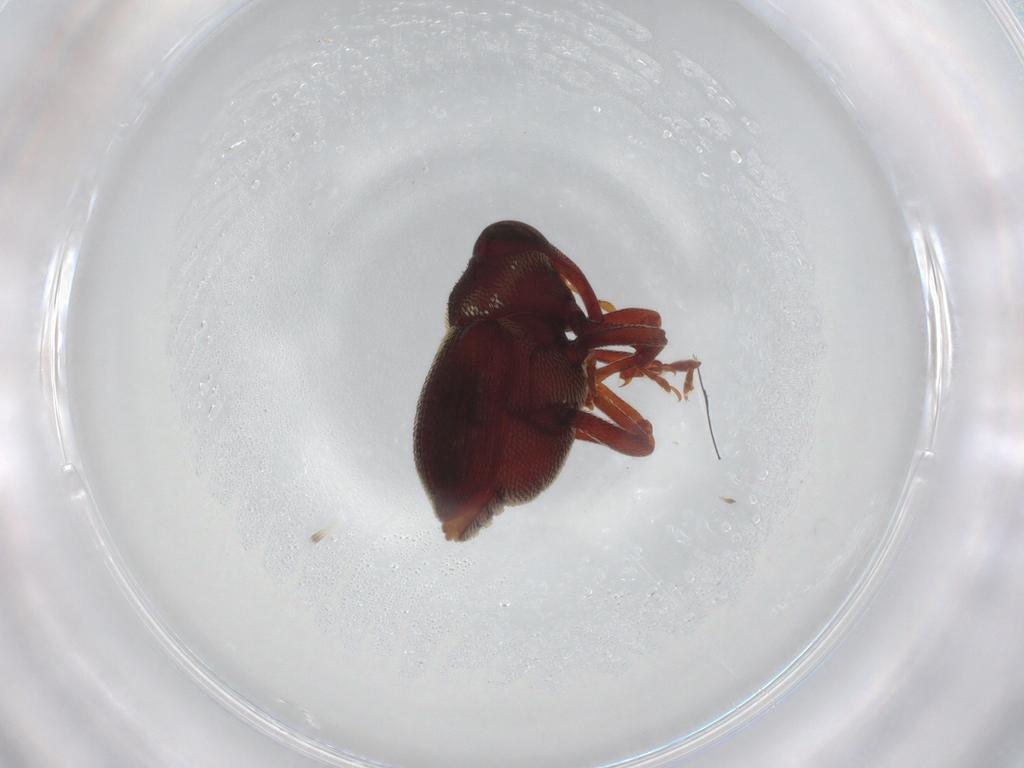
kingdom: Animalia
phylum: Arthropoda
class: Insecta
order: Coleoptera
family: Curculionidae
